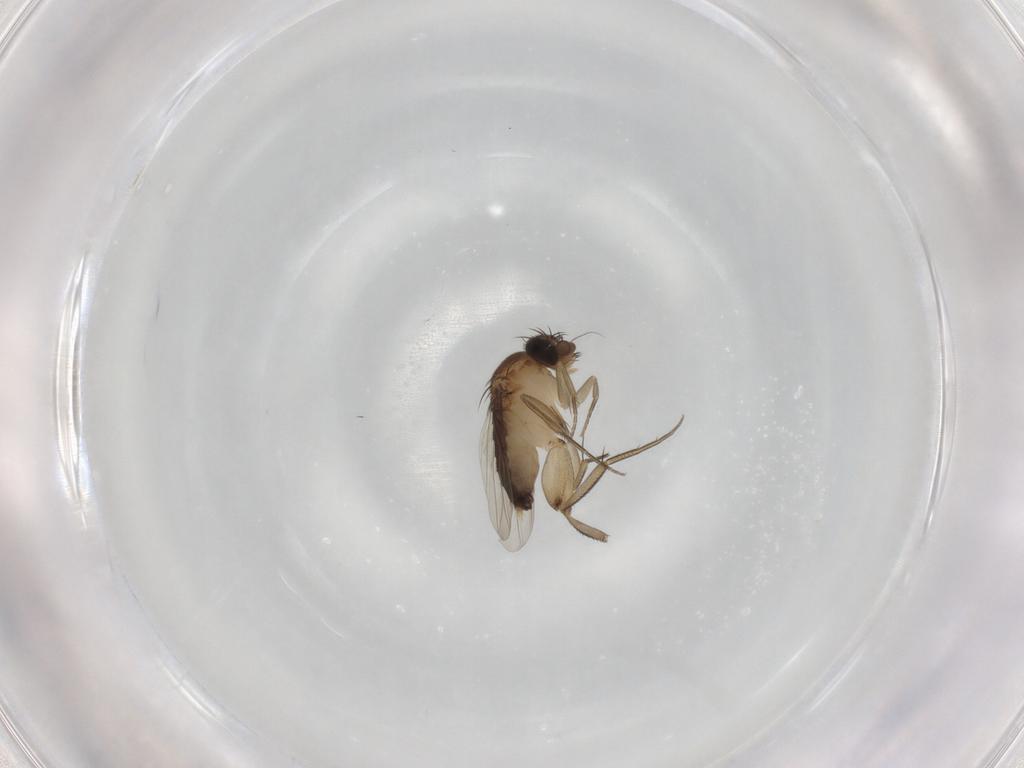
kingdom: Animalia
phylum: Arthropoda
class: Insecta
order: Diptera
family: Phoridae
